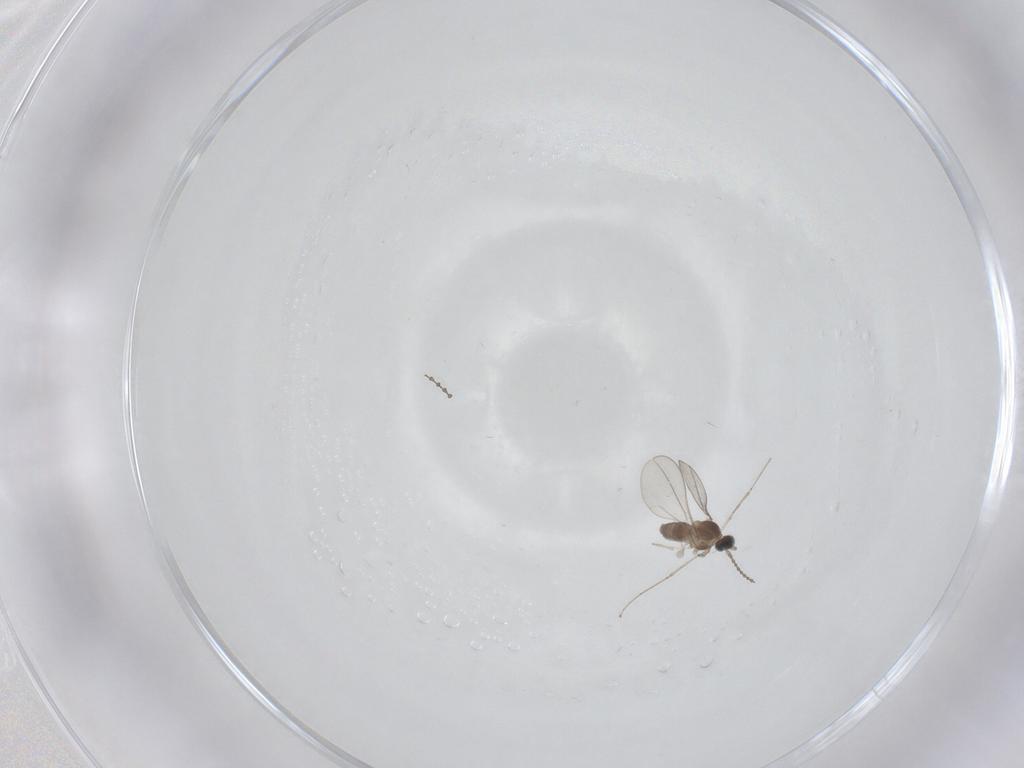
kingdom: Animalia
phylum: Arthropoda
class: Insecta
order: Diptera
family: Cecidomyiidae
